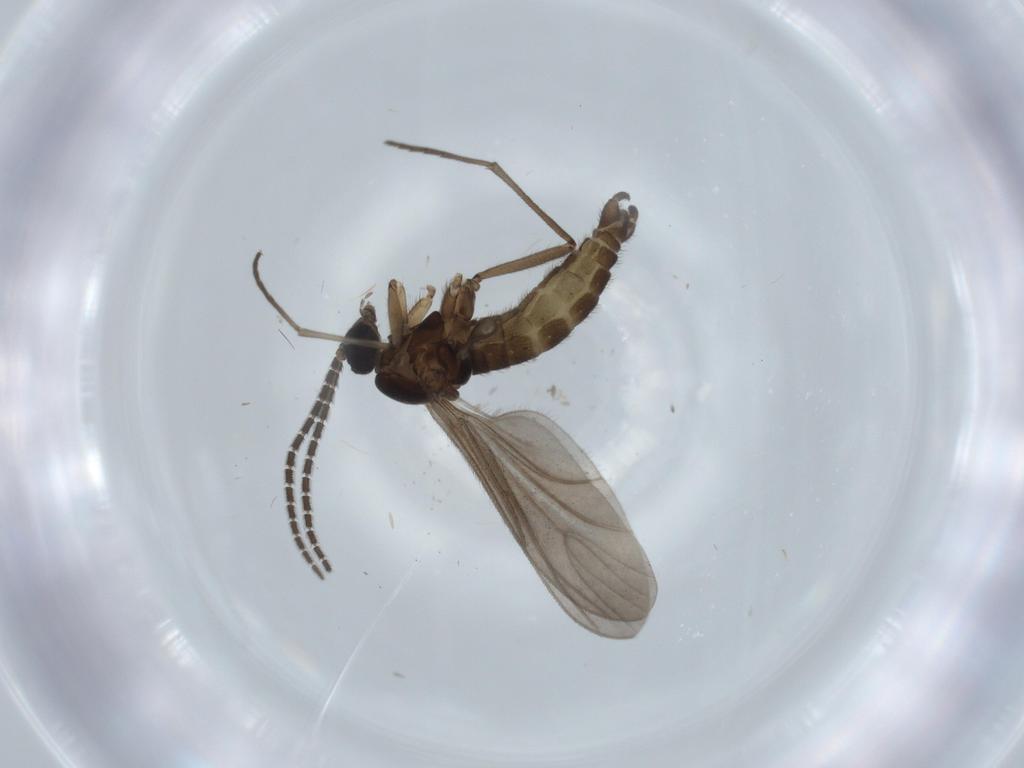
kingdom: Animalia
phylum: Arthropoda
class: Insecta
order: Diptera
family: Sciaridae
